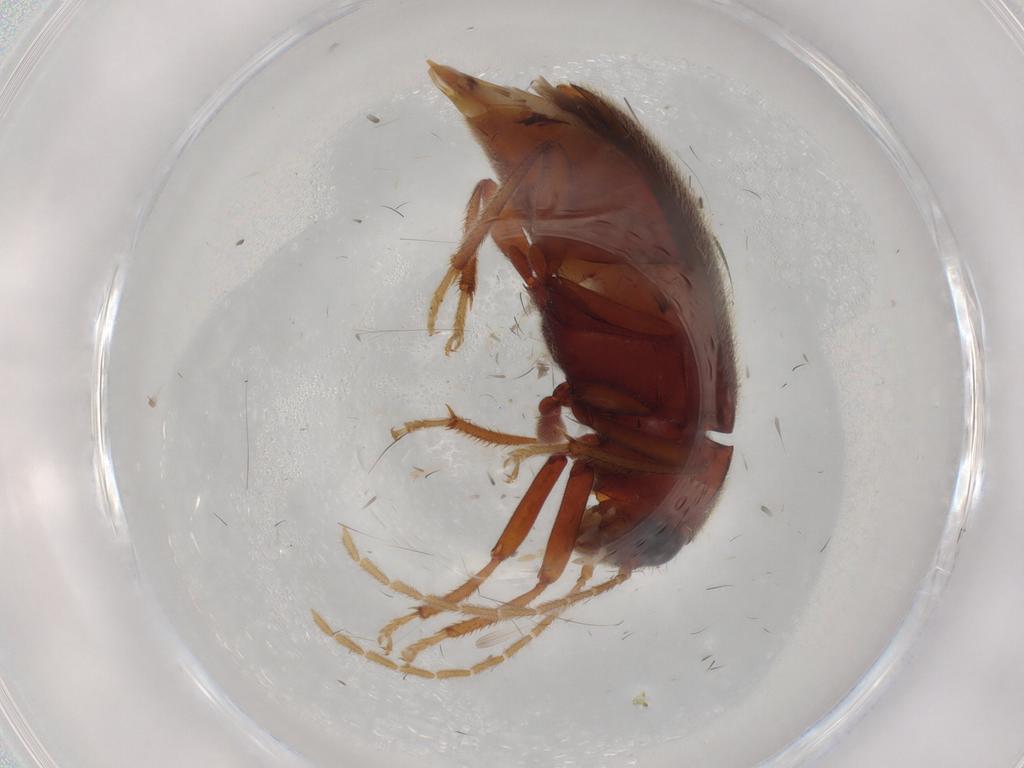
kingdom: Animalia
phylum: Arthropoda
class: Insecta
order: Coleoptera
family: Ptilodactylidae
